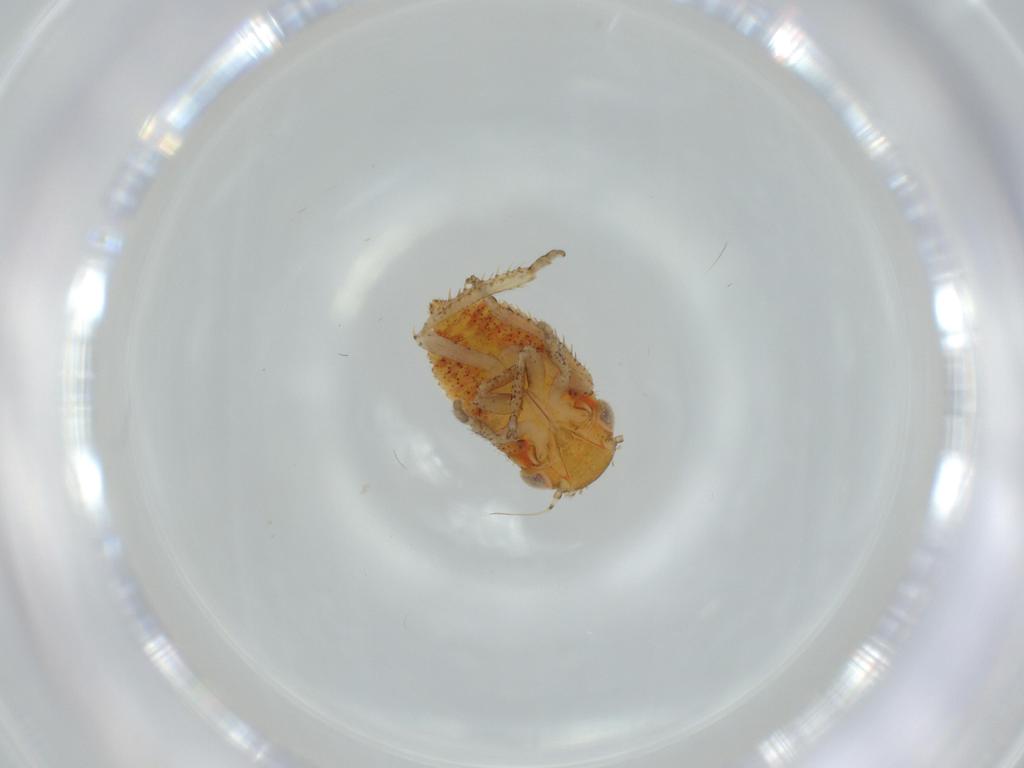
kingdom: Animalia
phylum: Arthropoda
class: Insecta
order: Hemiptera
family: Cicadellidae
